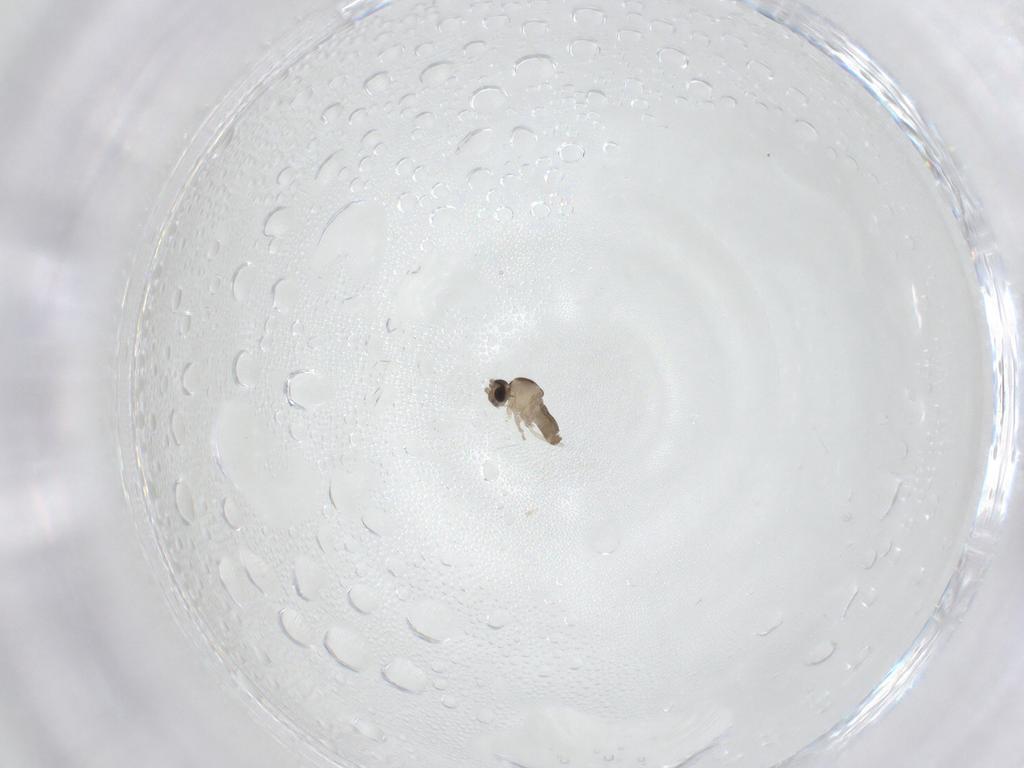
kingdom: Animalia
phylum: Arthropoda
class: Insecta
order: Diptera
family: Cecidomyiidae
